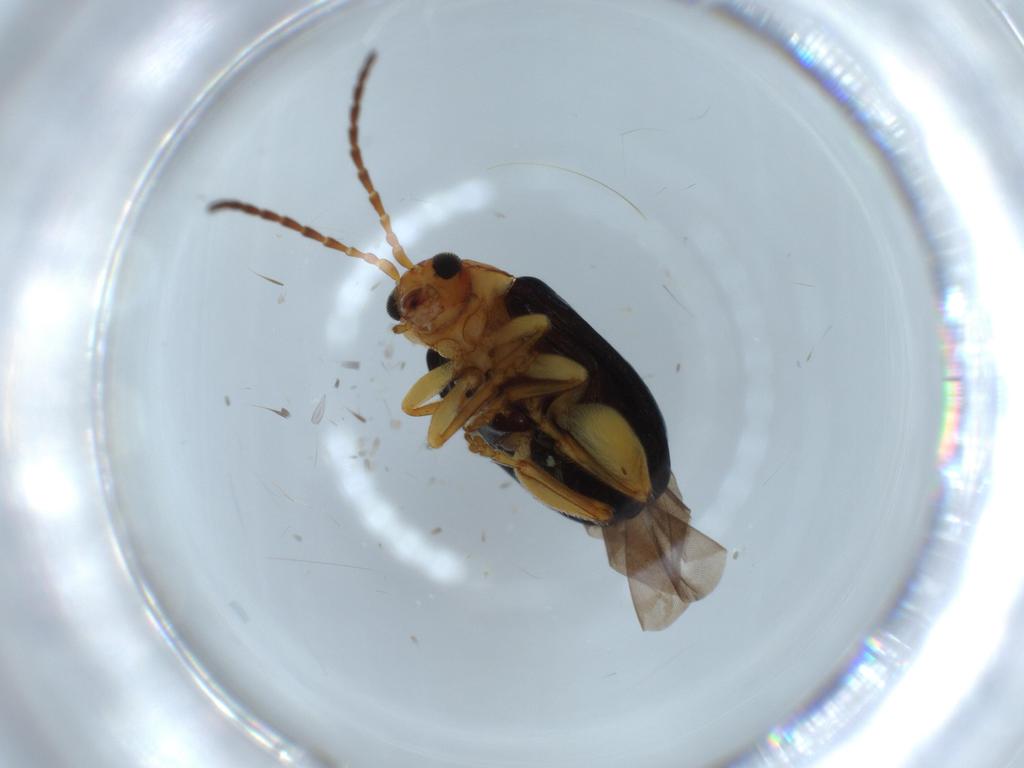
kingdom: Animalia
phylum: Arthropoda
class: Insecta
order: Coleoptera
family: Chrysomelidae
